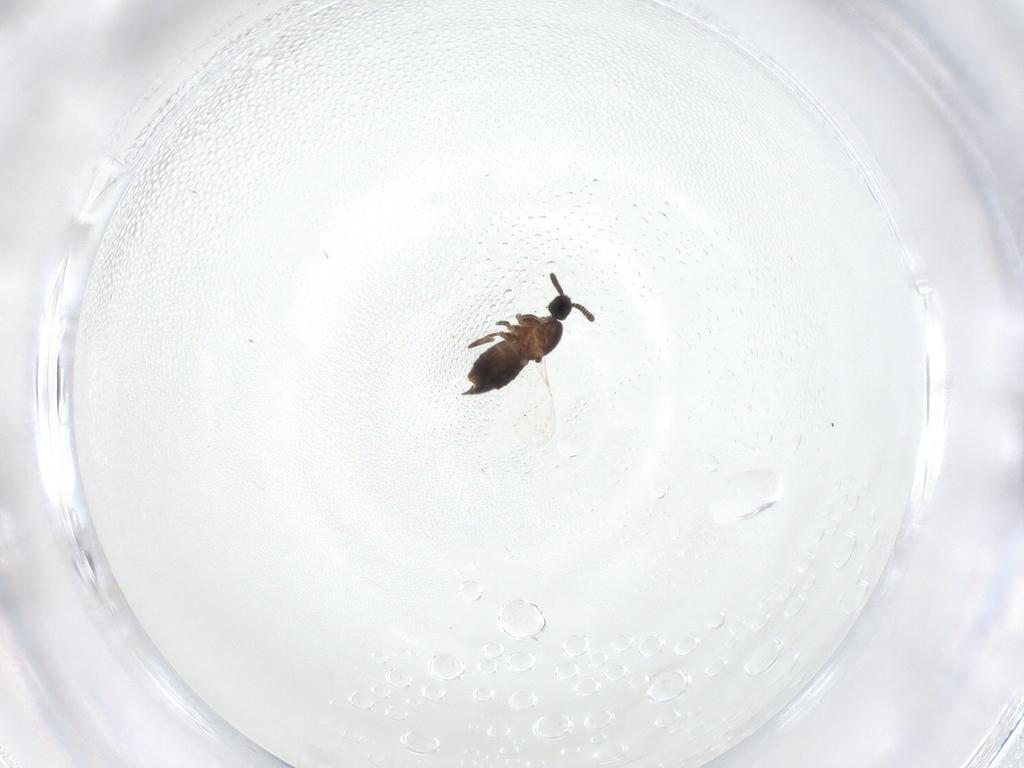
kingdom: Animalia
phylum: Arthropoda
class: Insecta
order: Diptera
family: Scatopsidae
